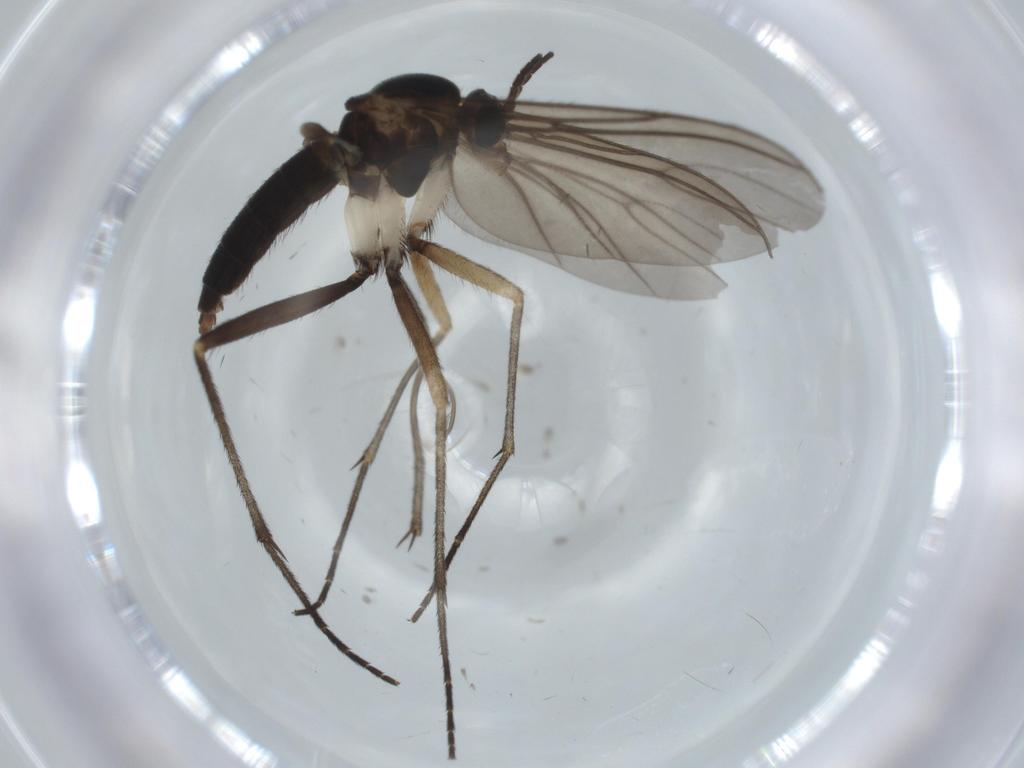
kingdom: Animalia
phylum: Arthropoda
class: Insecta
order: Diptera
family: Sciaridae
